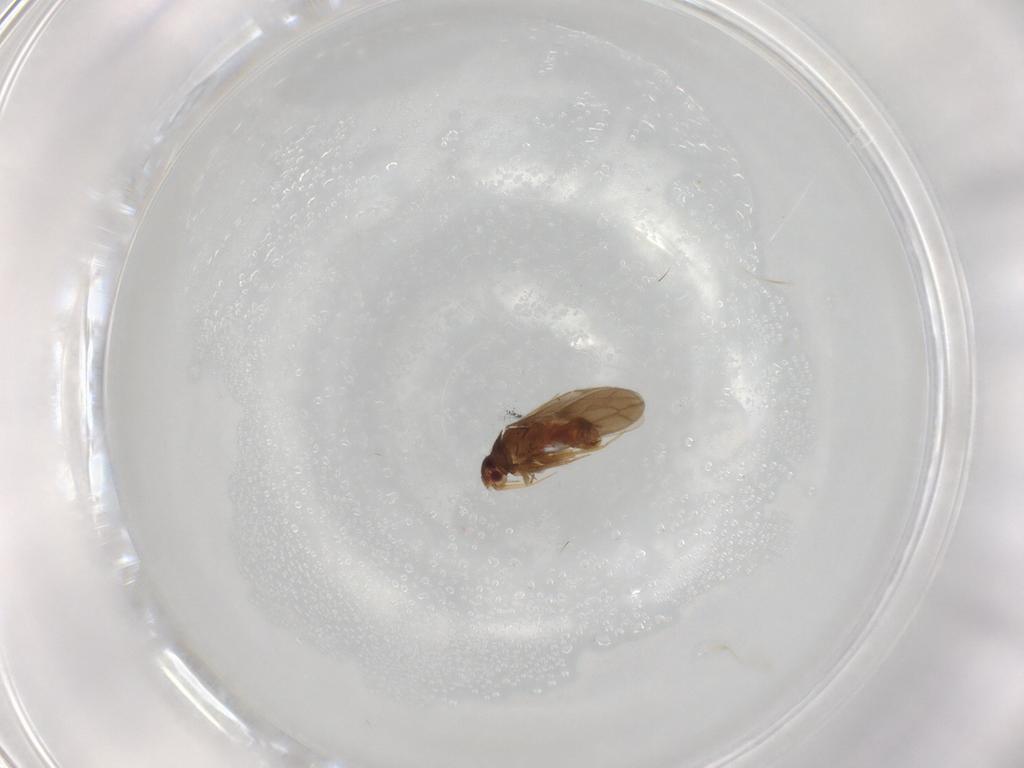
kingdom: Animalia
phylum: Arthropoda
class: Insecta
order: Hemiptera
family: Ceratocombidae
